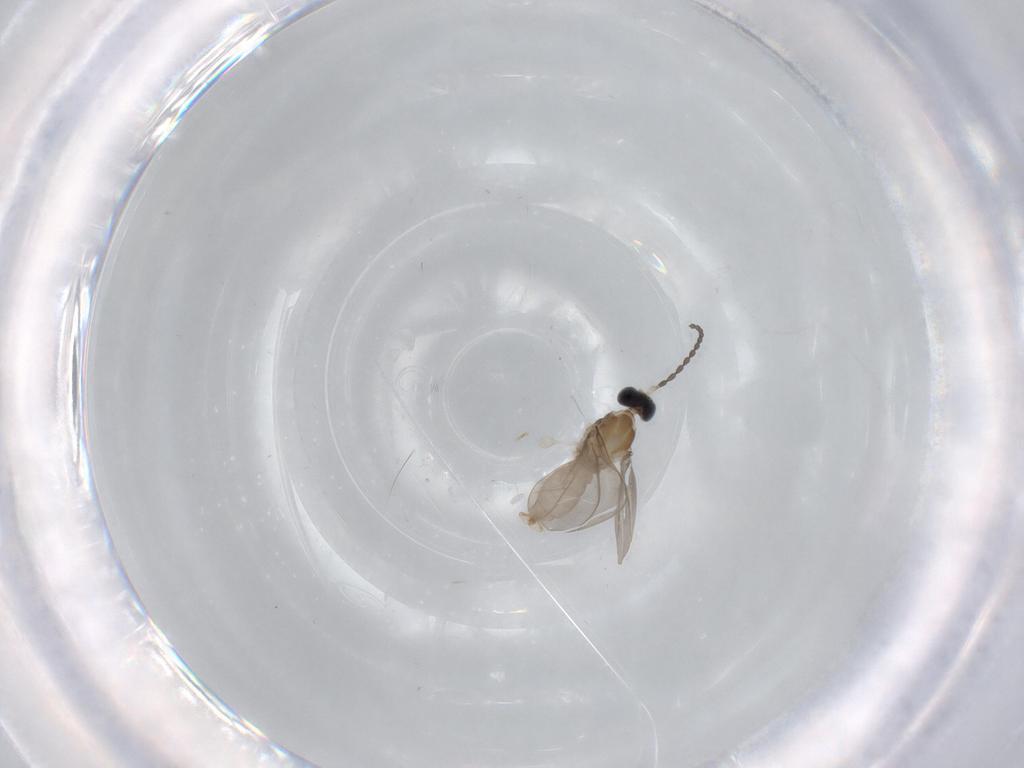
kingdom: Animalia
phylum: Arthropoda
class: Insecta
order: Diptera
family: Cecidomyiidae
